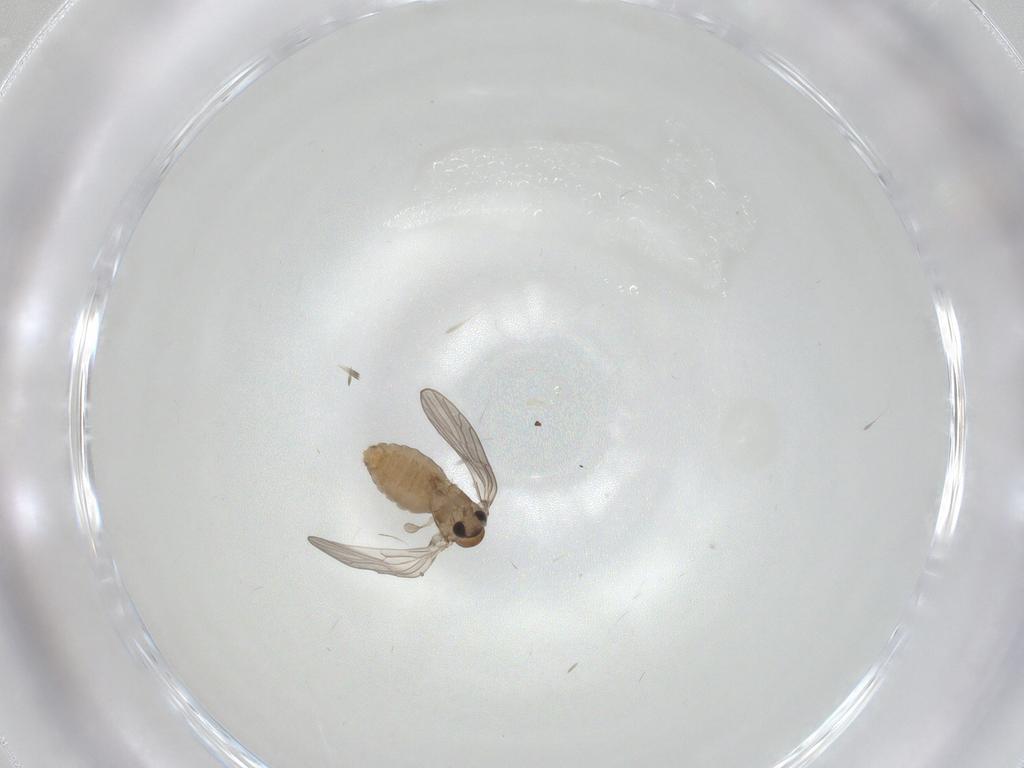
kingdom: Animalia
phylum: Arthropoda
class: Insecta
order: Diptera
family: Psychodidae
